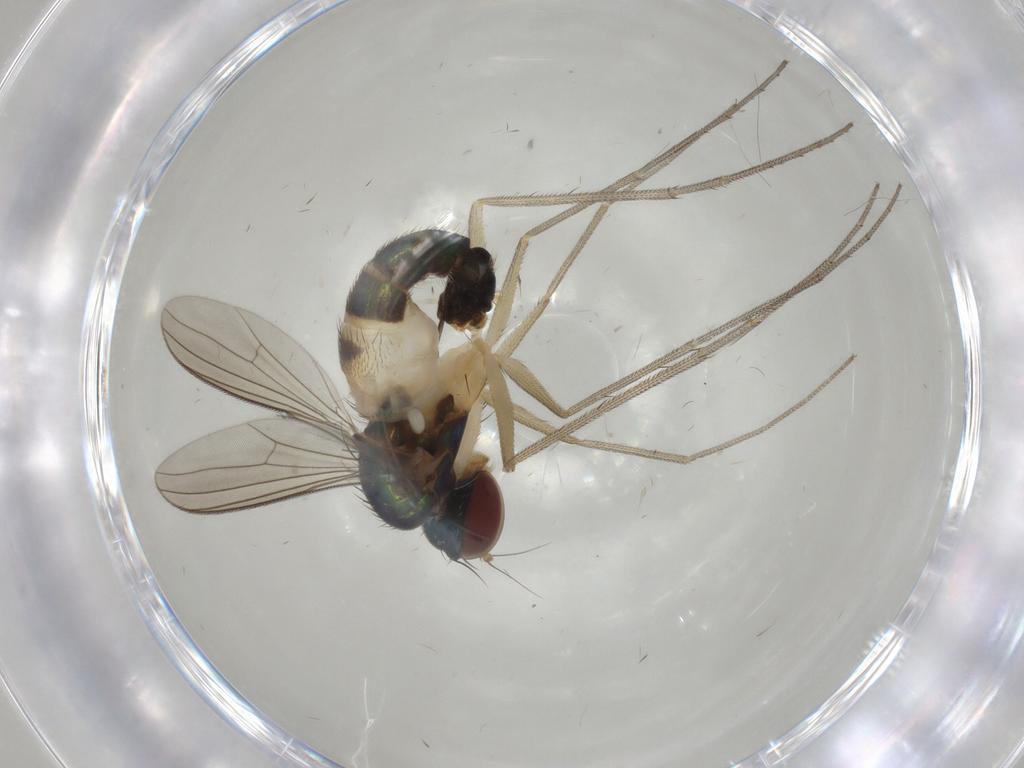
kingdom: Animalia
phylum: Arthropoda
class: Insecta
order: Diptera
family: Dolichopodidae
